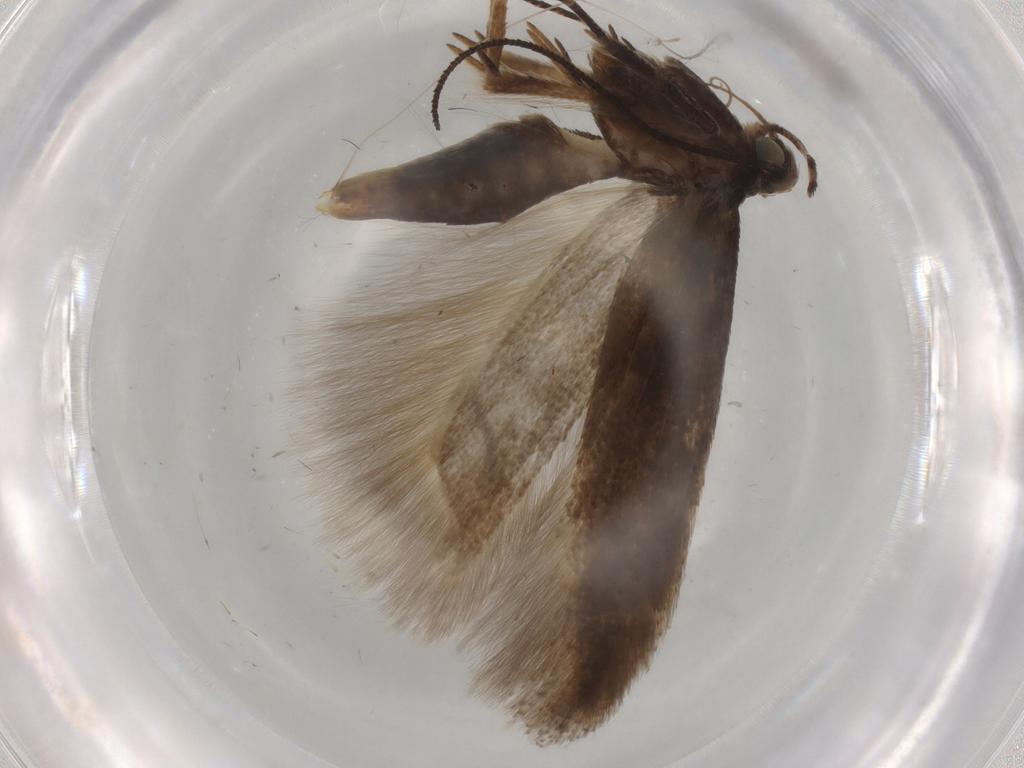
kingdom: Animalia
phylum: Arthropoda
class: Insecta
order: Lepidoptera
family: Gelechiidae
